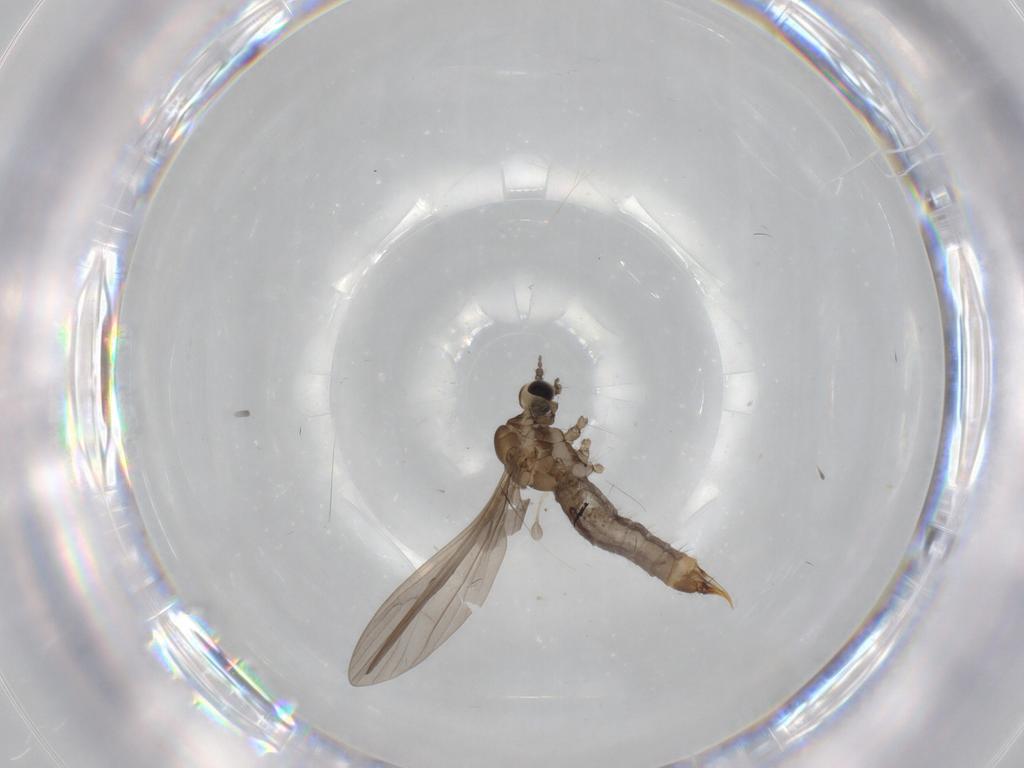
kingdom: Animalia
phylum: Arthropoda
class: Insecta
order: Diptera
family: Limoniidae
